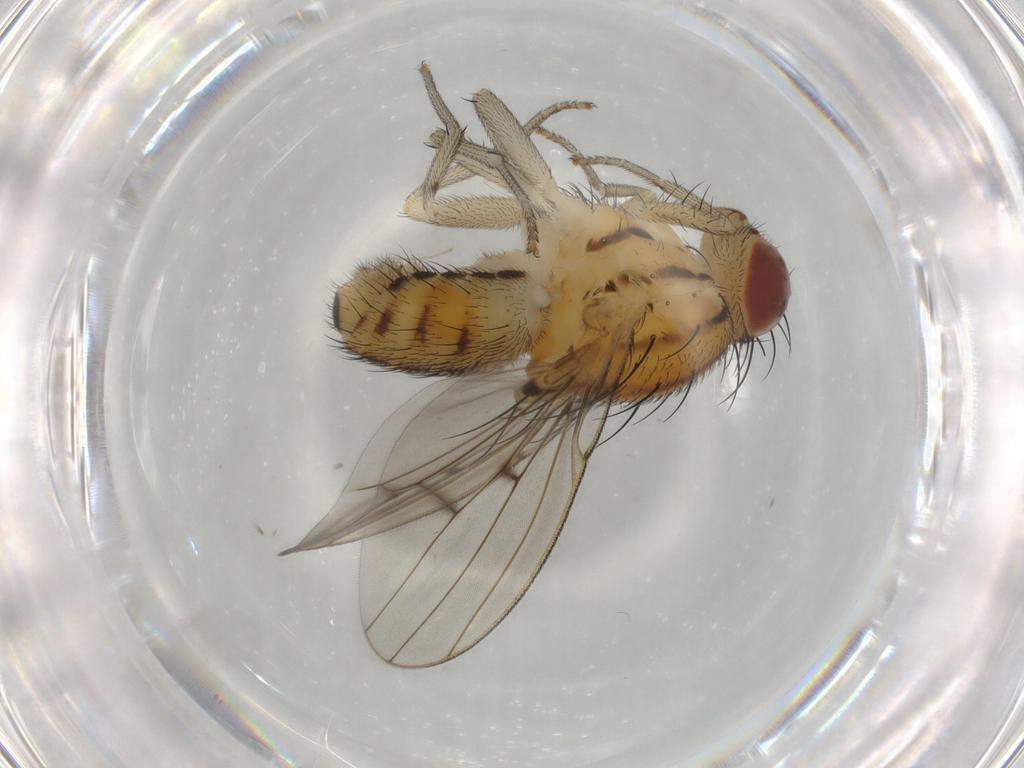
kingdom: Animalia
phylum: Arthropoda
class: Insecta
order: Diptera
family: Lauxaniidae
